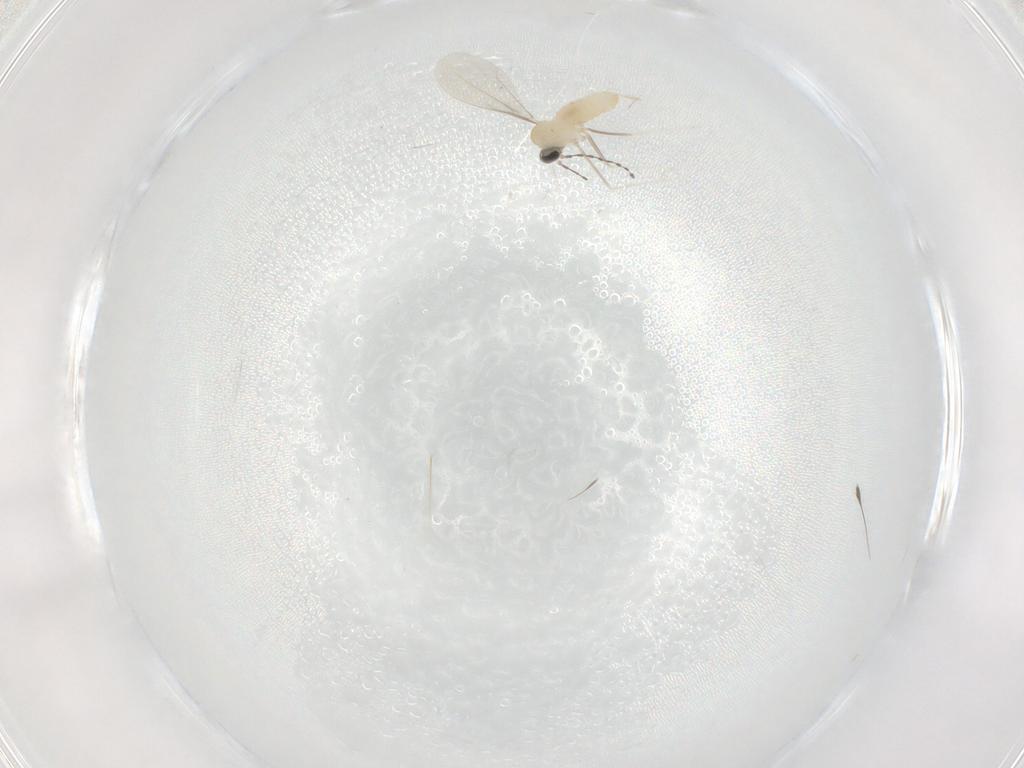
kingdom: Animalia
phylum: Arthropoda
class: Insecta
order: Diptera
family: Cecidomyiidae
